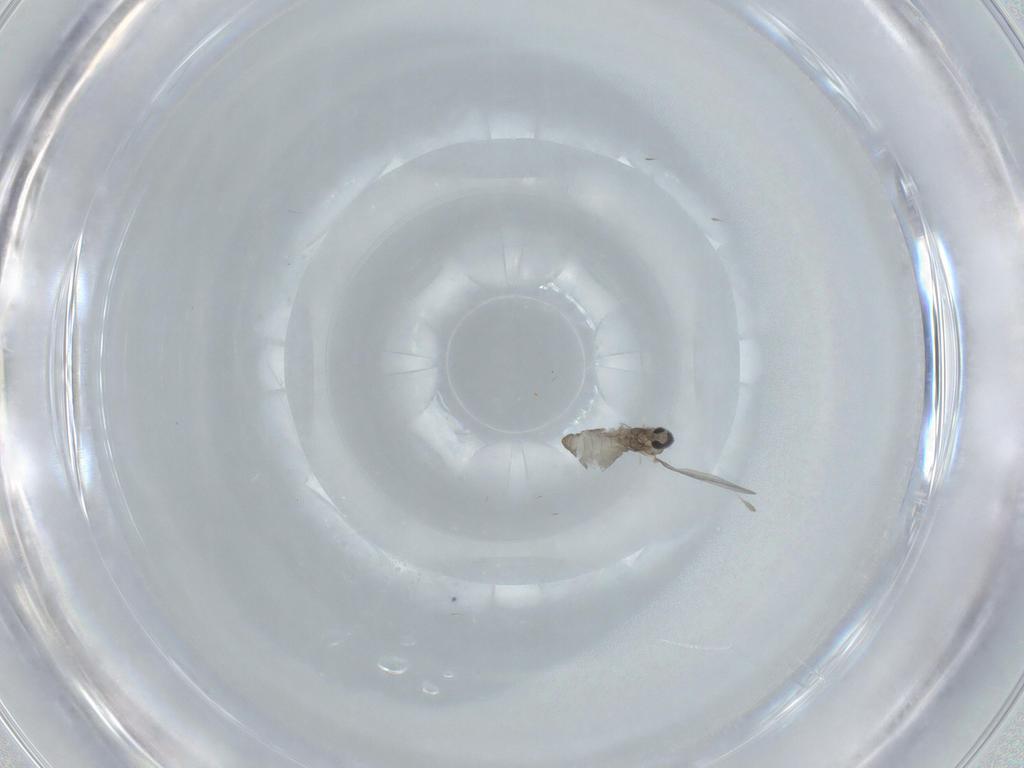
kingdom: Animalia
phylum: Arthropoda
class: Insecta
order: Diptera
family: Cecidomyiidae
